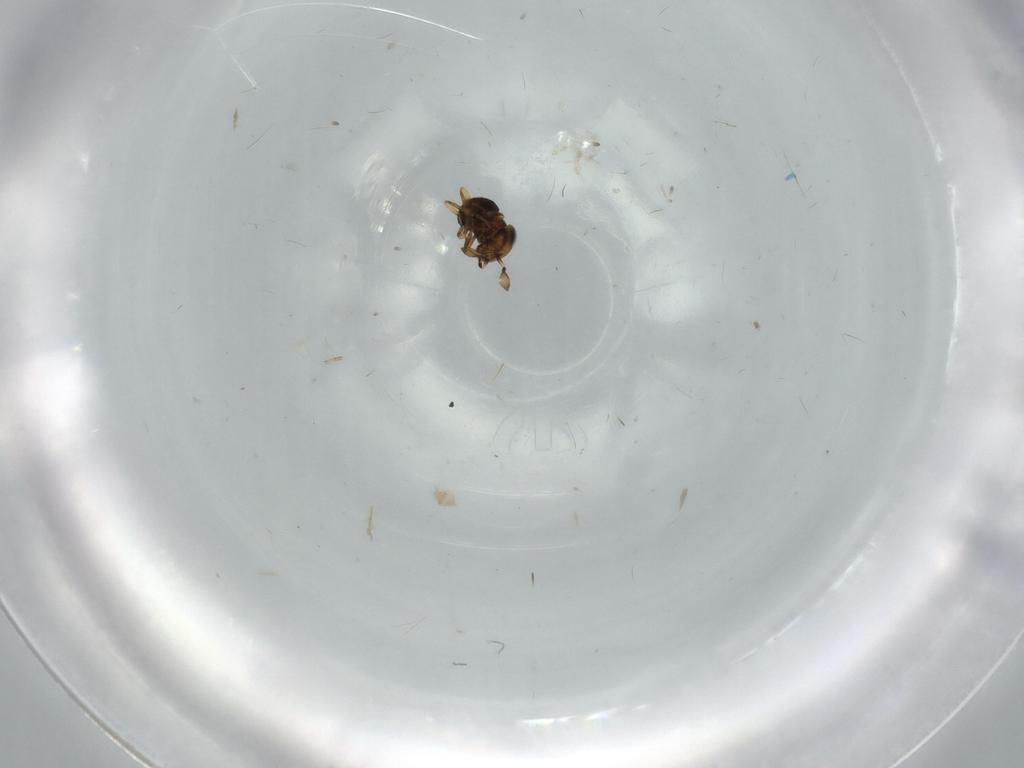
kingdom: Animalia
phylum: Arthropoda
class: Insecta
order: Hymenoptera
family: Scelionidae
